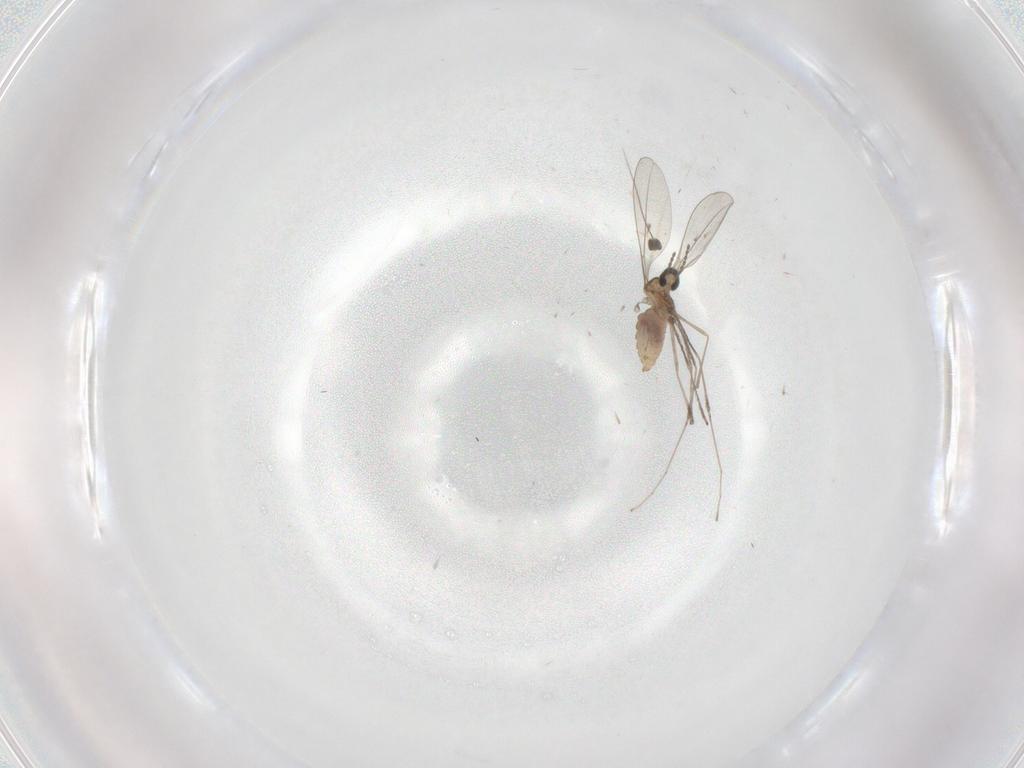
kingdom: Animalia
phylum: Arthropoda
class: Insecta
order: Diptera
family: Cecidomyiidae
